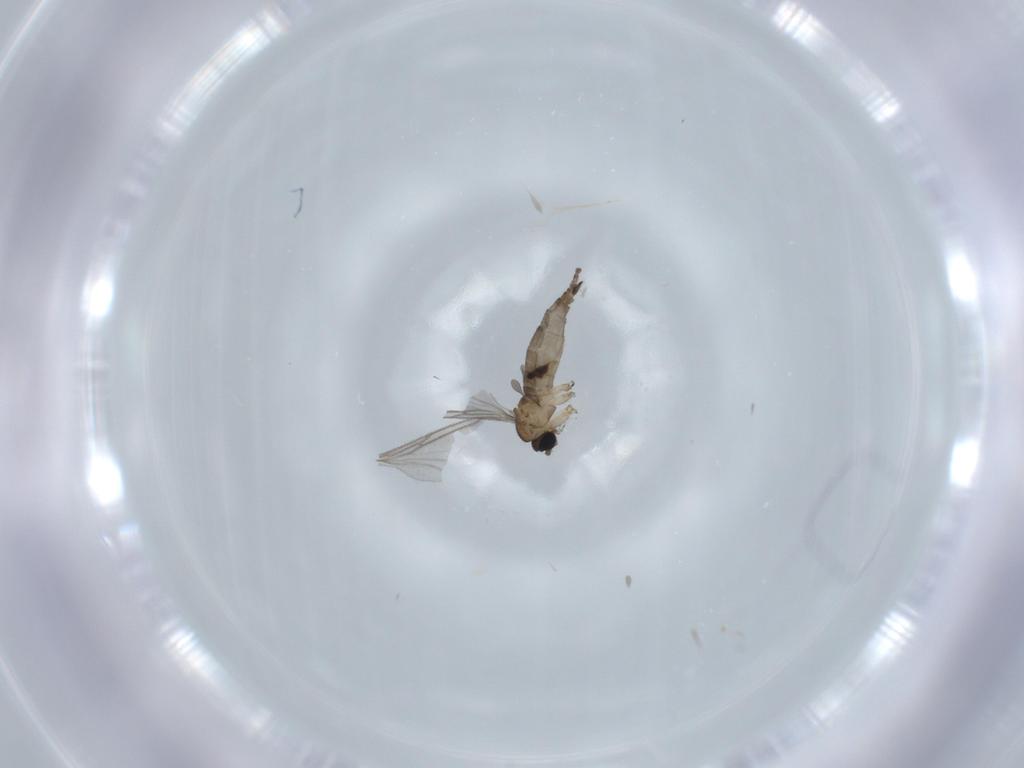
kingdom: Animalia
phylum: Arthropoda
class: Insecta
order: Diptera
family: Sciaridae
